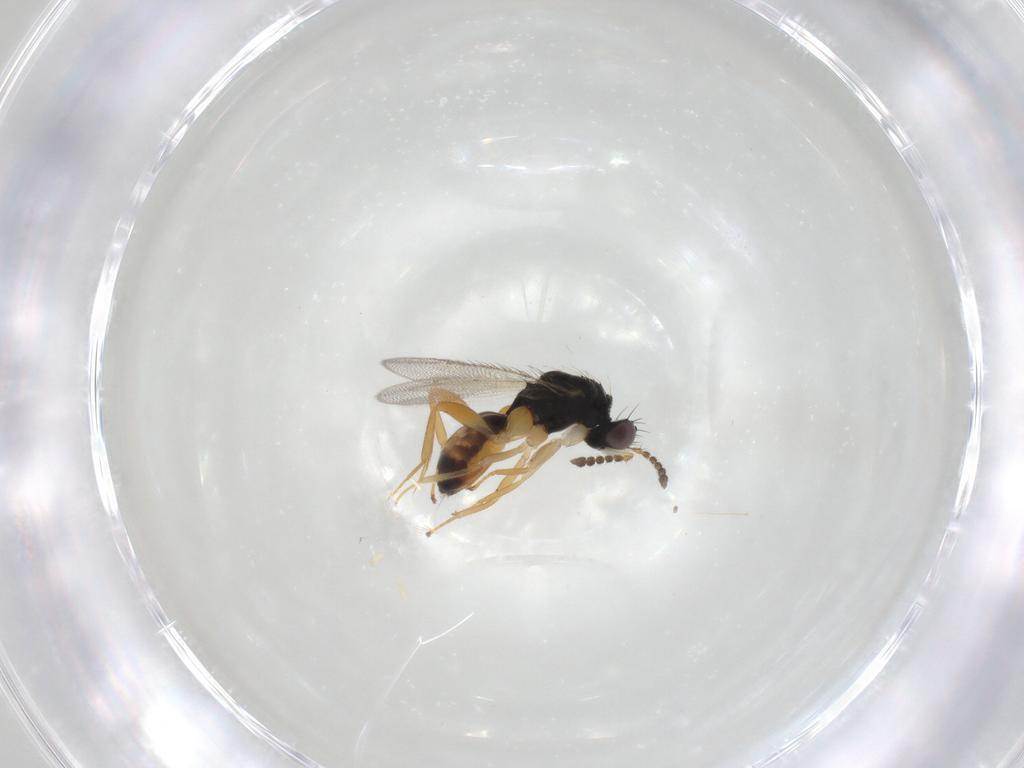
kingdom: Animalia
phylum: Arthropoda
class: Insecta
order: Hymenoptera
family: Eulophidae
